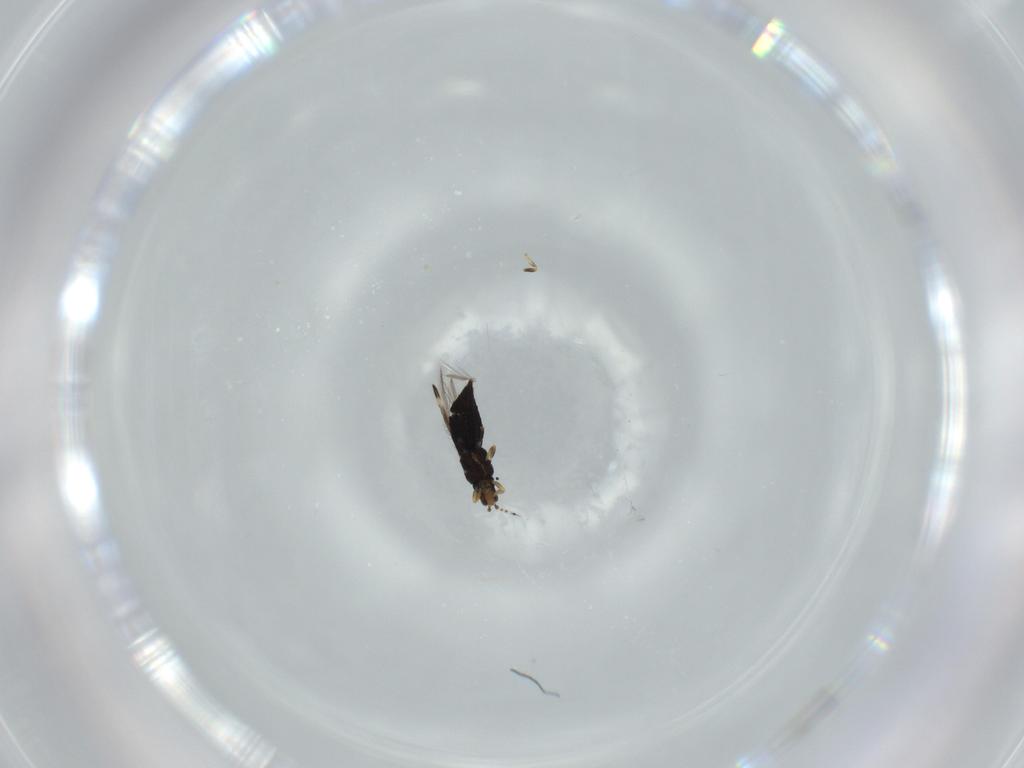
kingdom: Animalia
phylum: Arthropoda
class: Insecta
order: Thysanoptera
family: Thripidae
